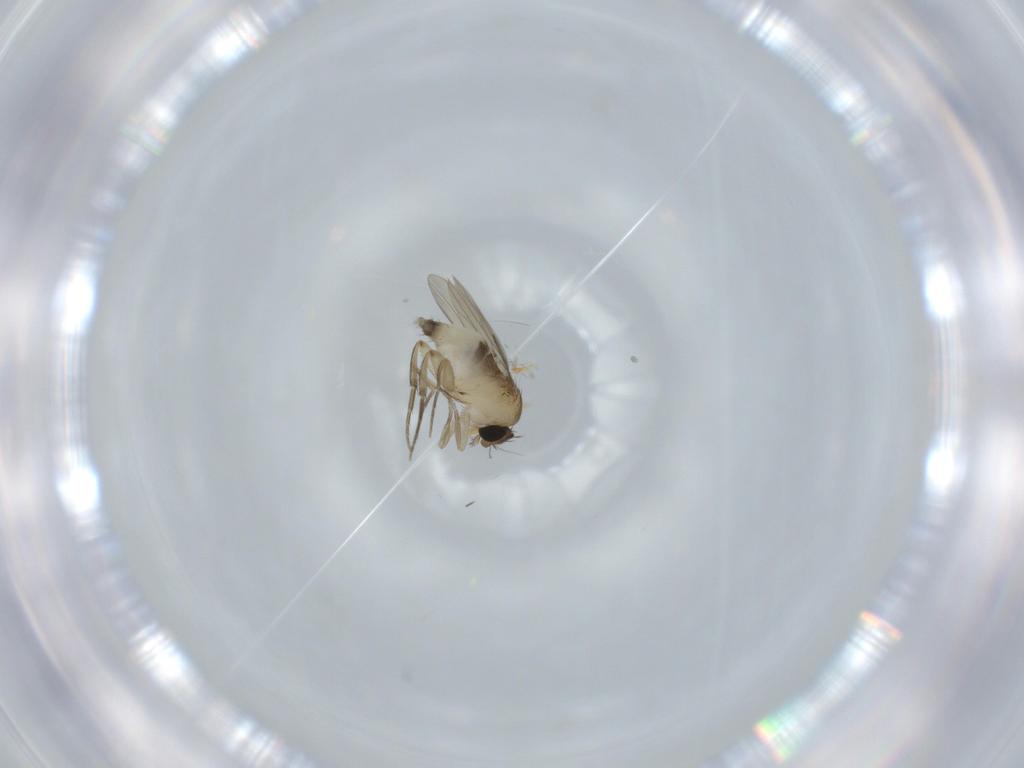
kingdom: Animalia
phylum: Arthropoda
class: Insecta
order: Diptera
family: Phoridae
